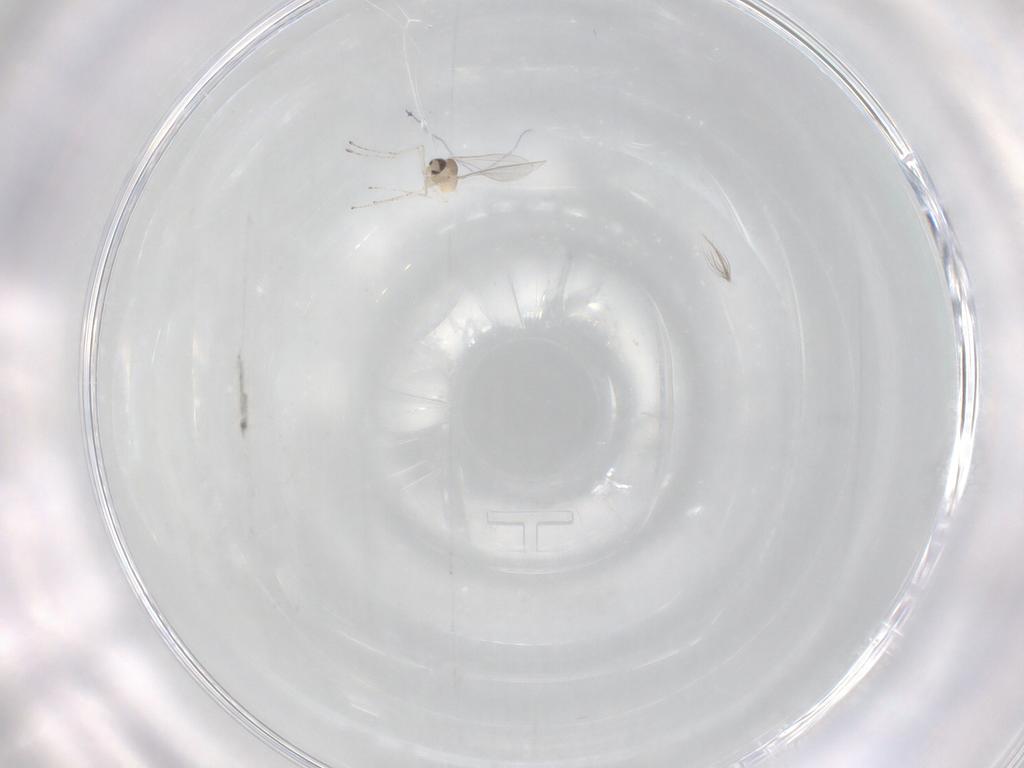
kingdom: Animalia
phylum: Arthropoda
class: Insecta
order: Diptera
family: Cecidomyiidae
